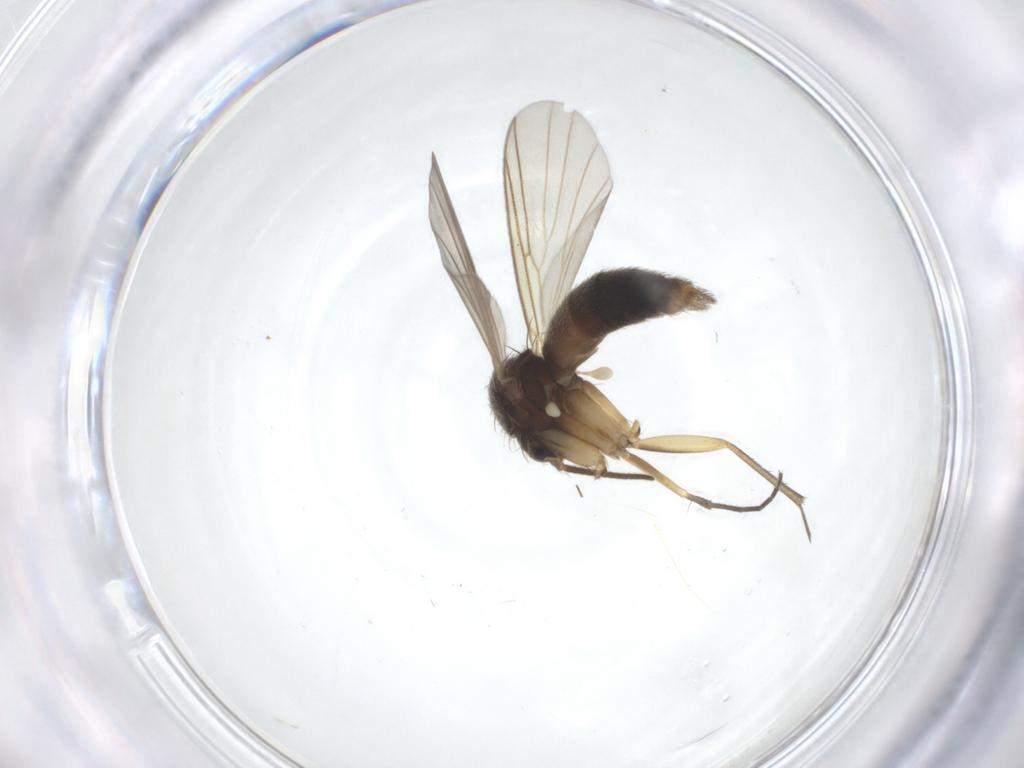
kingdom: Animalia
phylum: Arthropoda
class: Insecta
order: Diptera
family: Mycetophilidae
